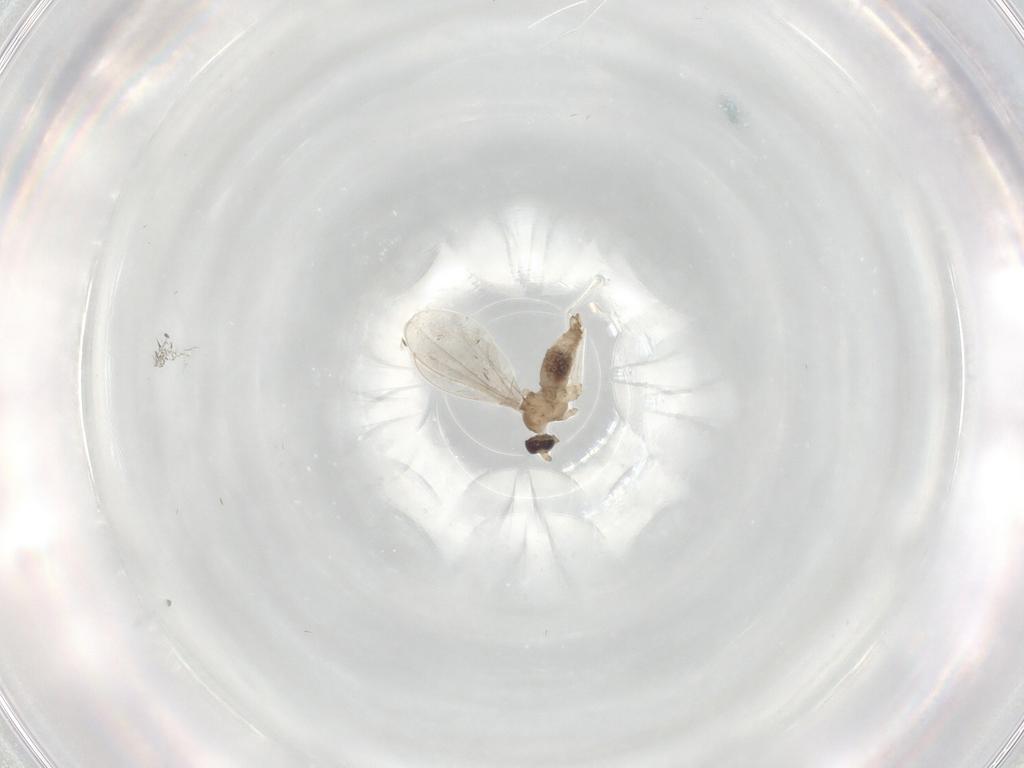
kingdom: Animalia
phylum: Arthropoda
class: Insecta
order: Diptera
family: Cecidomyiidae
